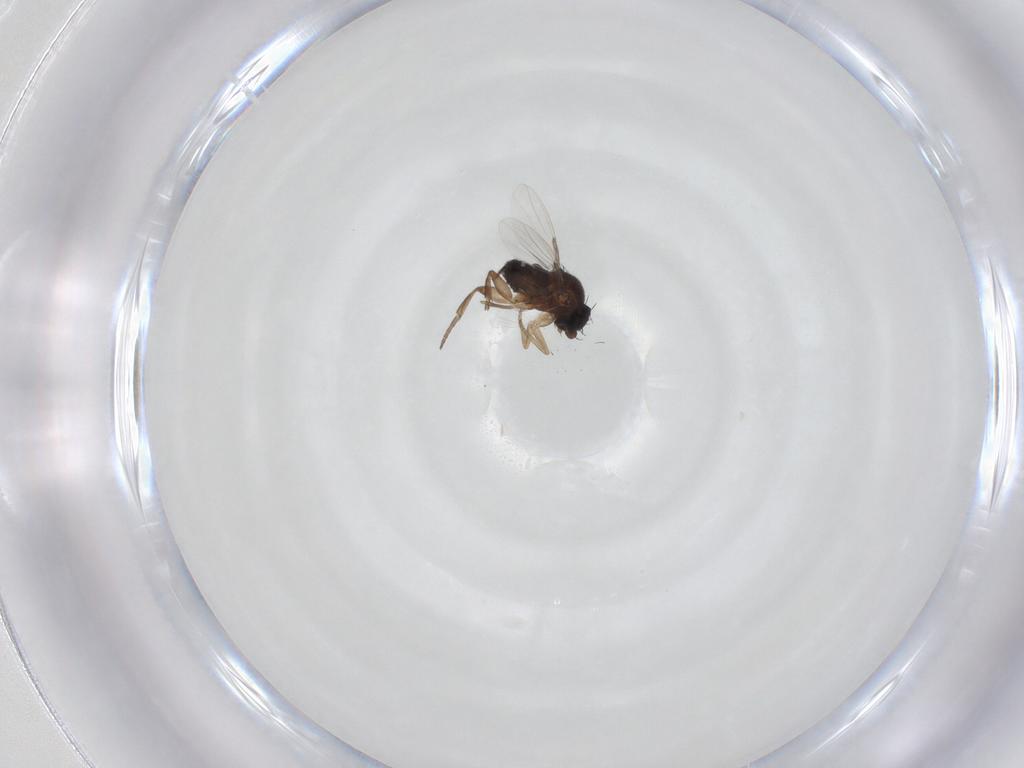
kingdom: Animalia
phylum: Arthropoda
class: Insecta
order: Diptera
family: Phoridae
